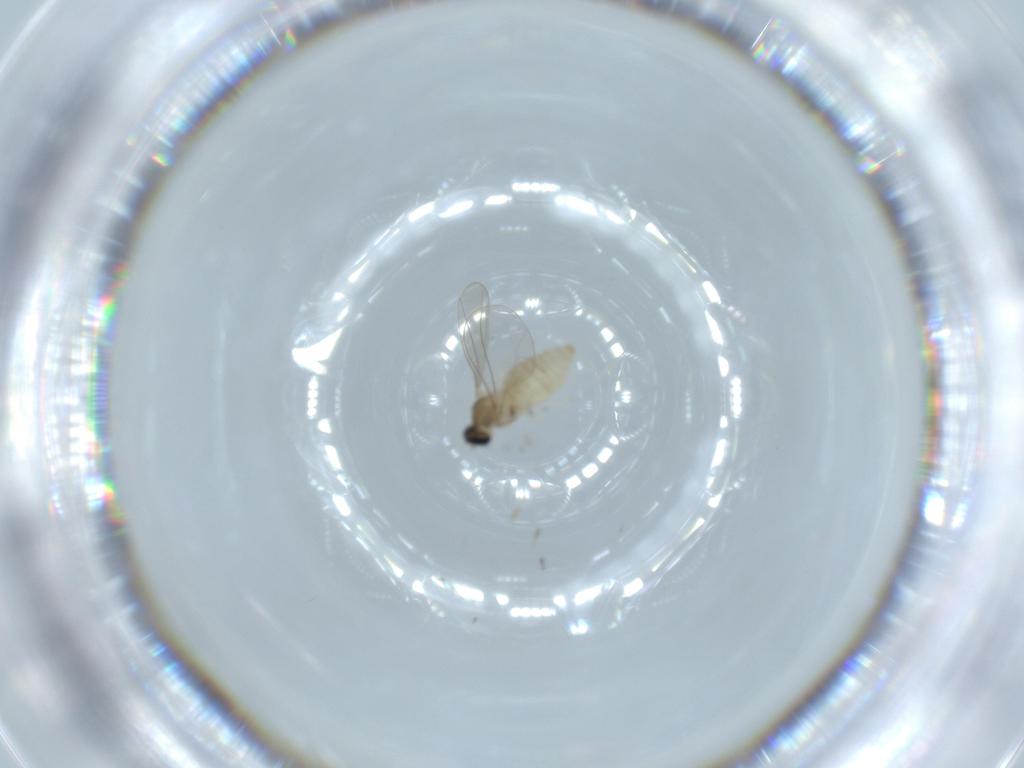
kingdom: Animalia
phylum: Arthropoda
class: Insecta
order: Diptera
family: Cecidomyiidae
